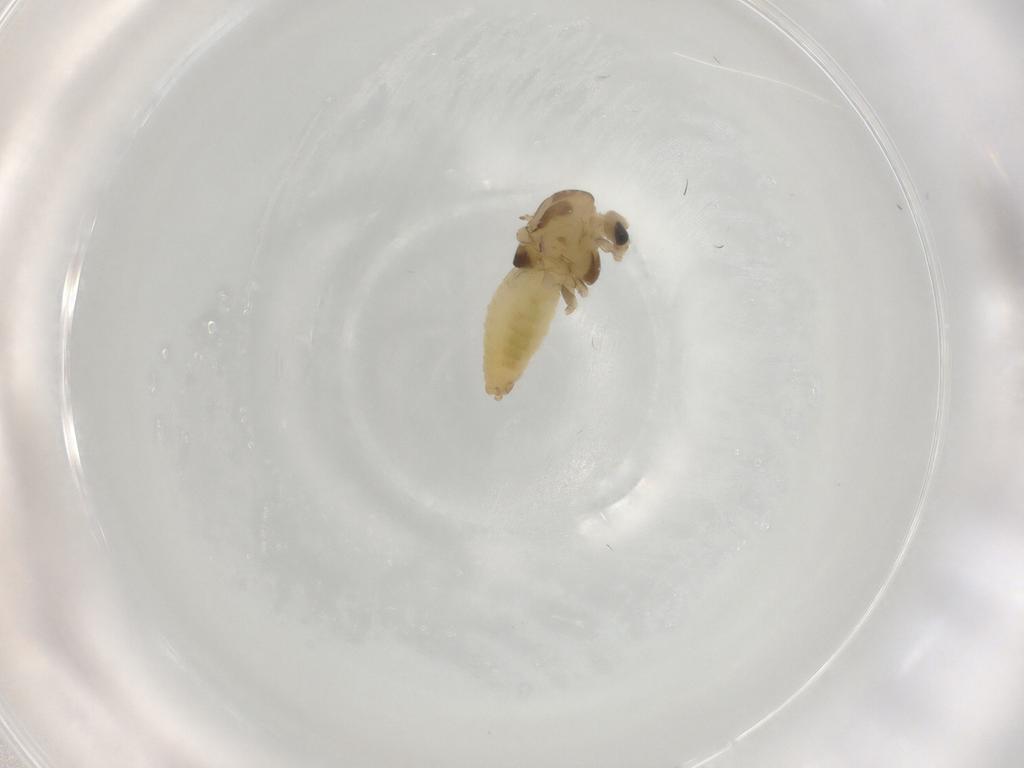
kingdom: Animalia
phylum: Arthropoda
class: Insecta
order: Diptera
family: Chironomidae
